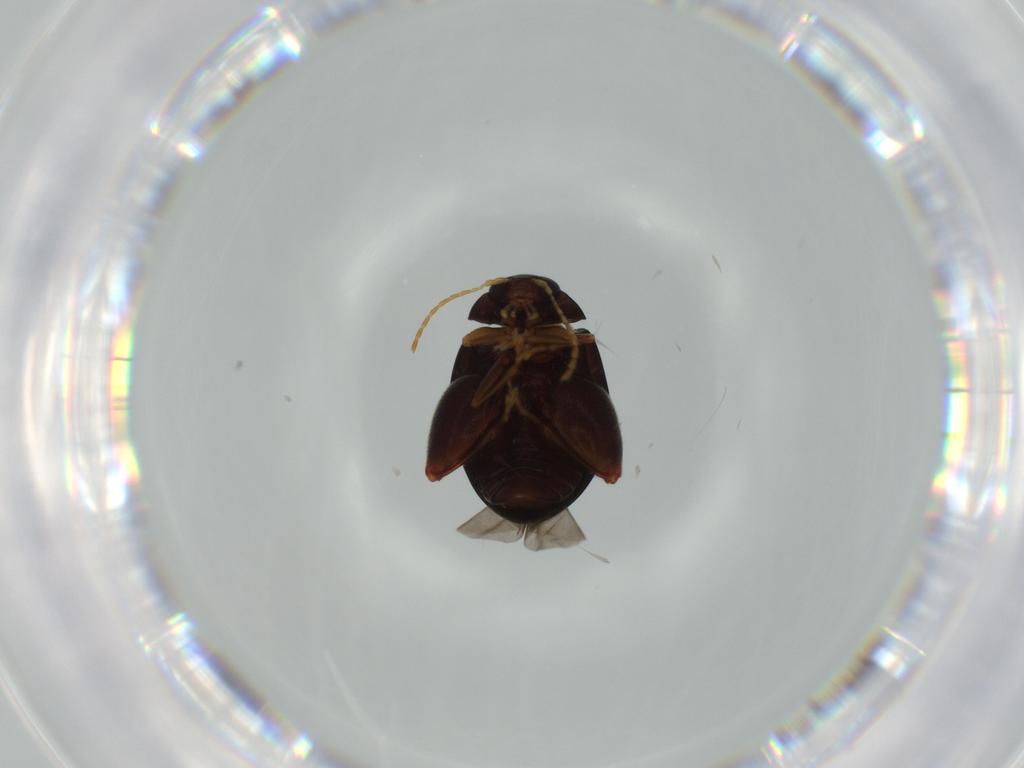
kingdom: Animalia
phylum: Arthropoda
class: Insecta
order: Coleoptera
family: Chrysomelidae
